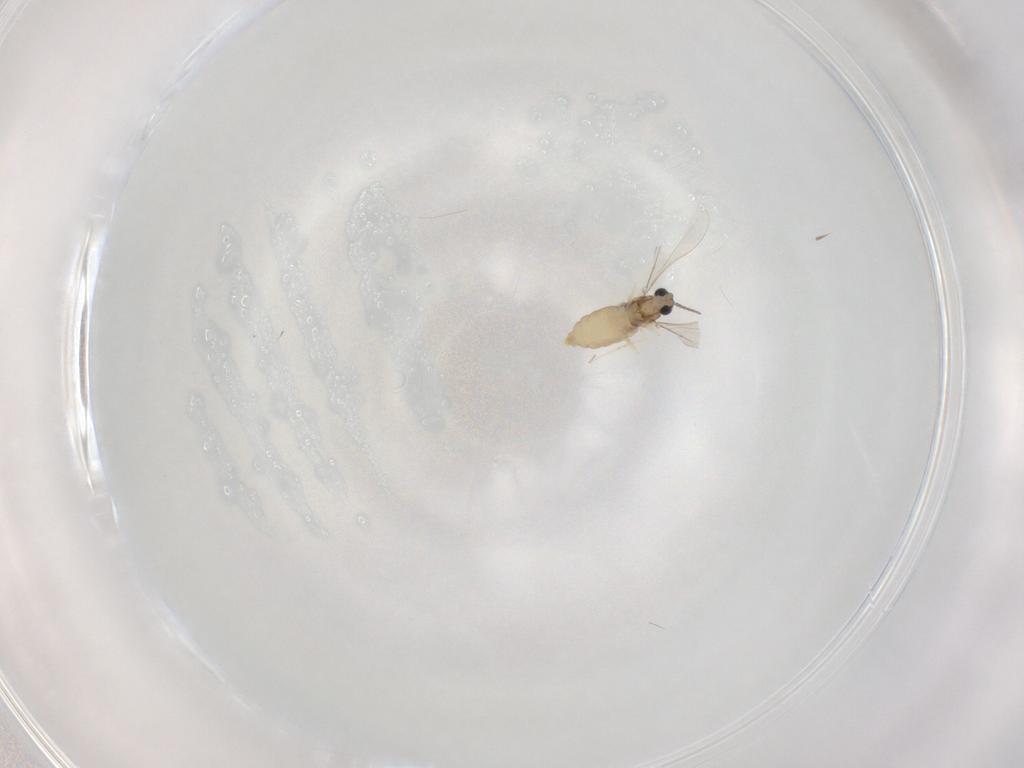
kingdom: Animalia
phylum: Arthropoda
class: Insecta
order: Diptera
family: Cecidomyiidae
